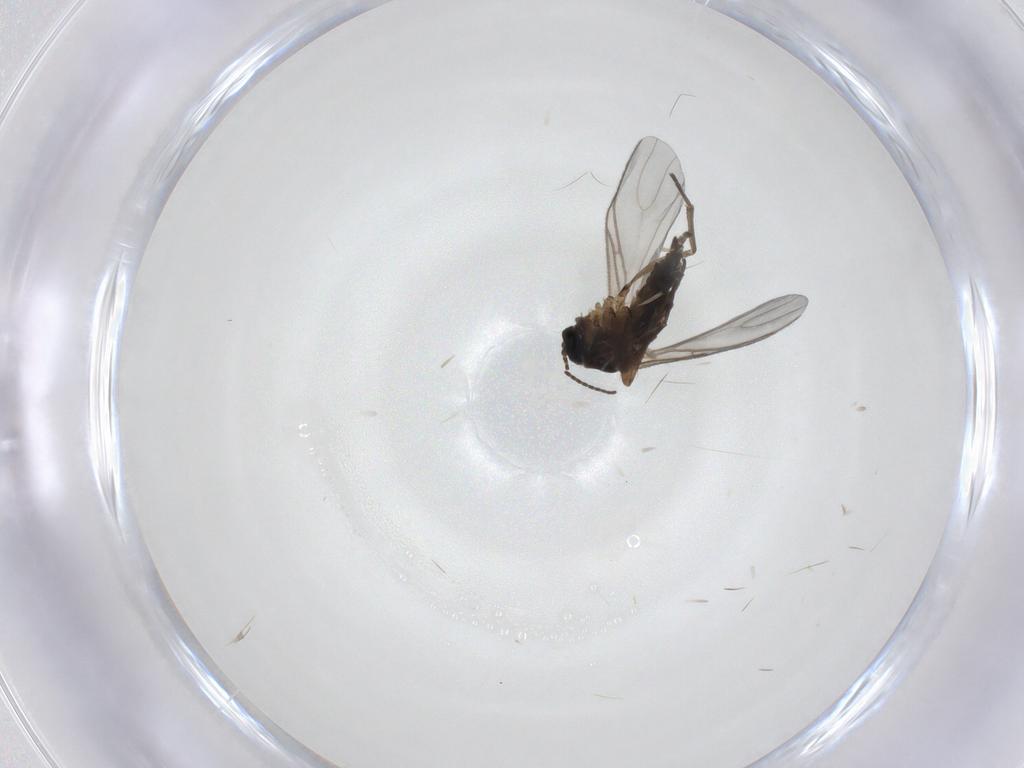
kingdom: Animalia
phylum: Arthropoda
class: Insecta
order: Diptera
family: Sciaridae
